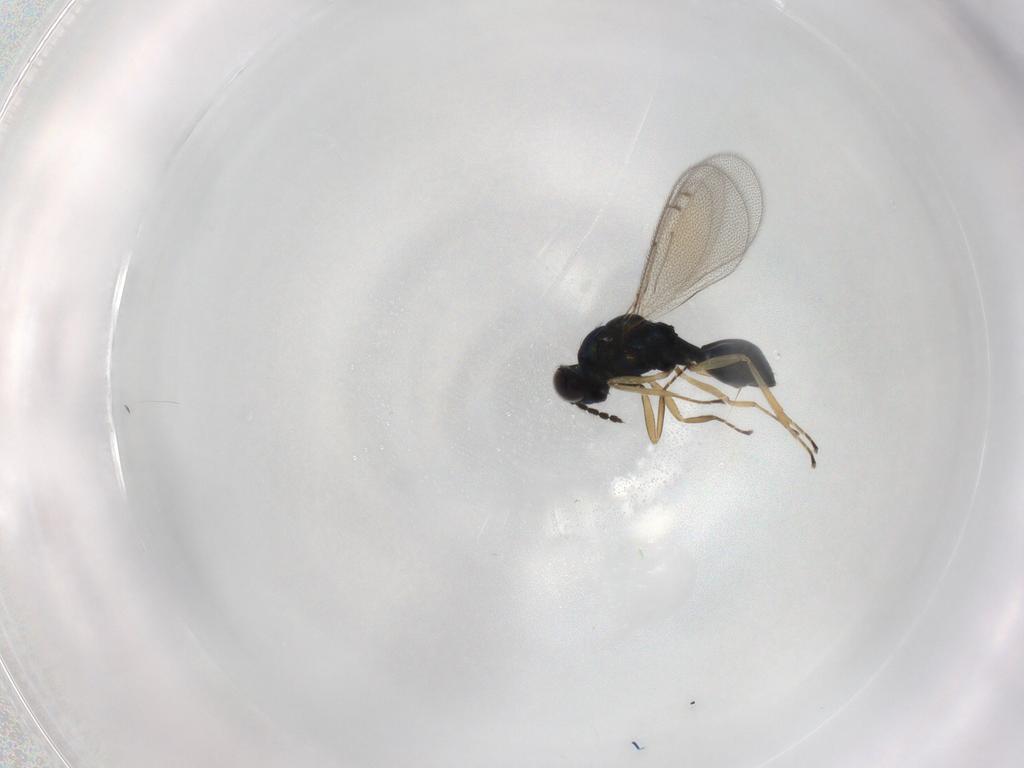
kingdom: Animalia
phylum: Arthropoda
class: Insecta
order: Hymenoptera
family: Eulophidae
